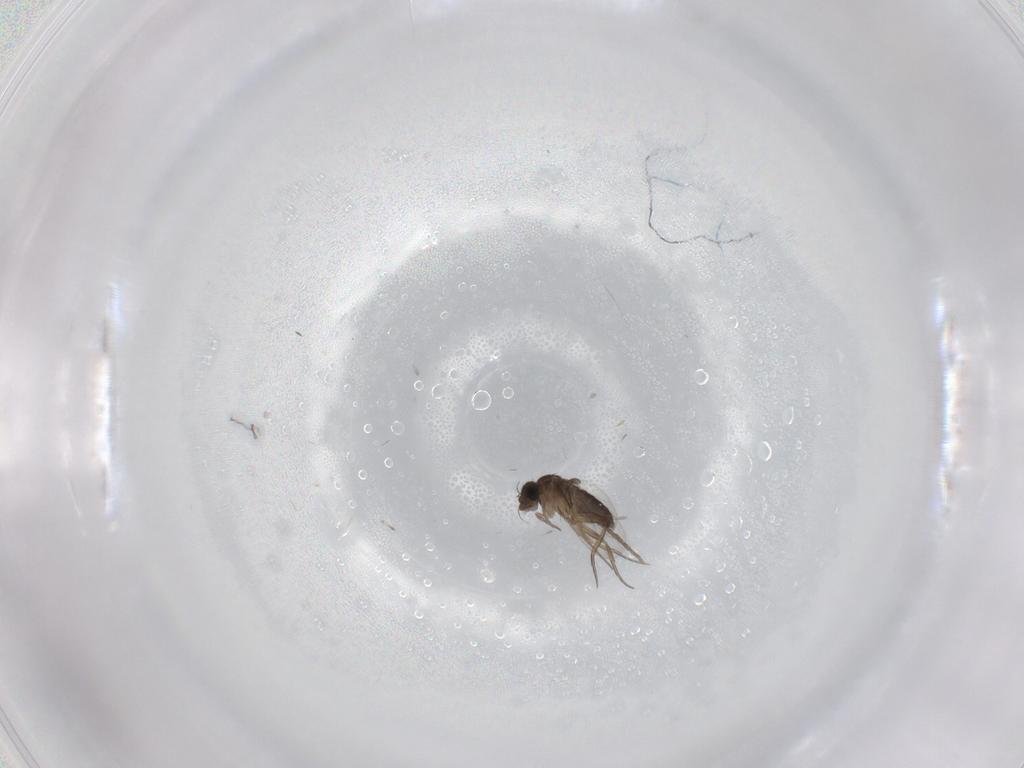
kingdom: Animalia
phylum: Arthropoda
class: Insecta
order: Diptera
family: Phoridae
